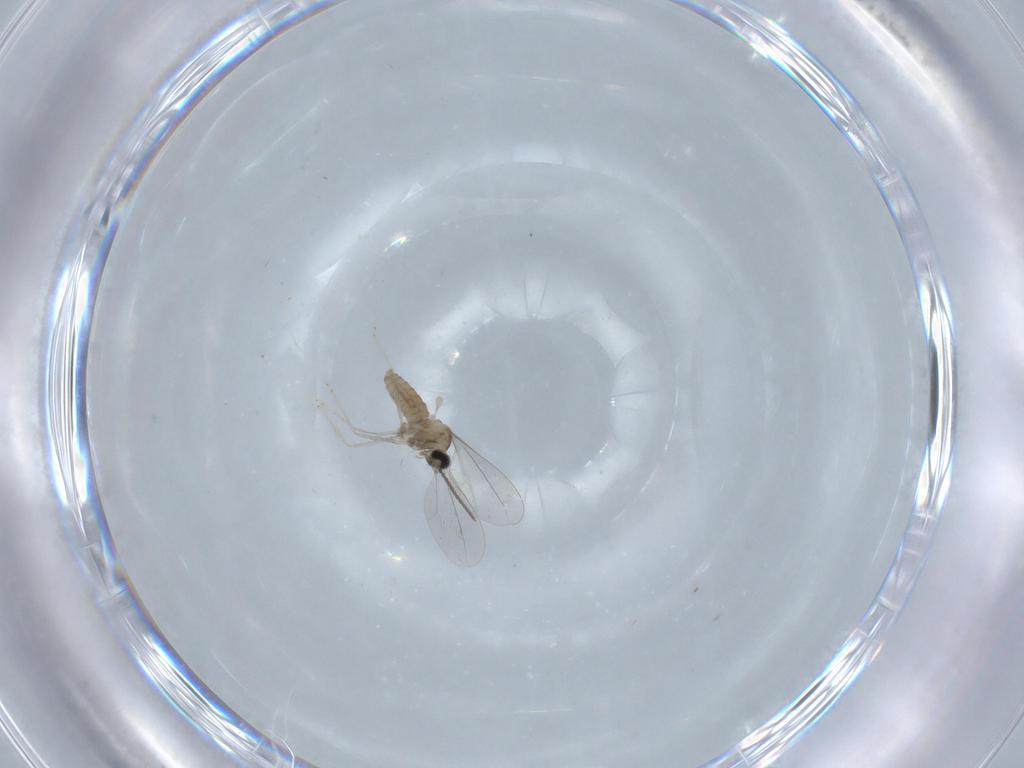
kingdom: Animalia
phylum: Arthropoda
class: Insecta
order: Diptera
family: Cecidomyiidae
